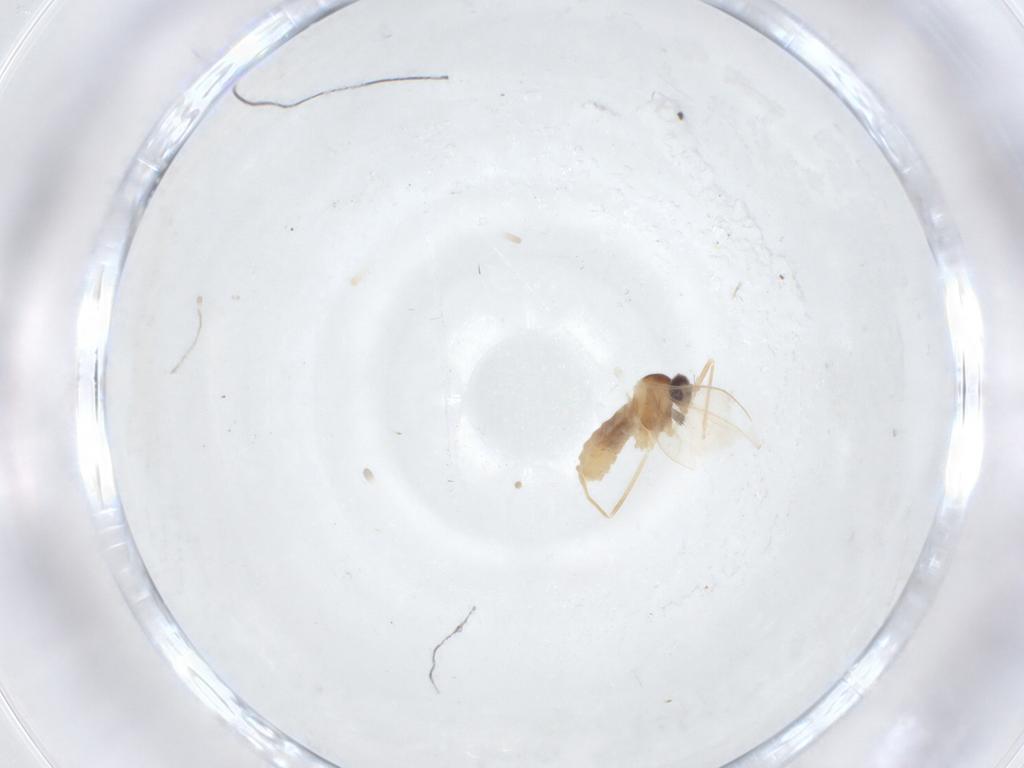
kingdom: Animalia
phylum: Arthropoda
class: Insecta
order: Diptera
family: Cecidomyiidae
